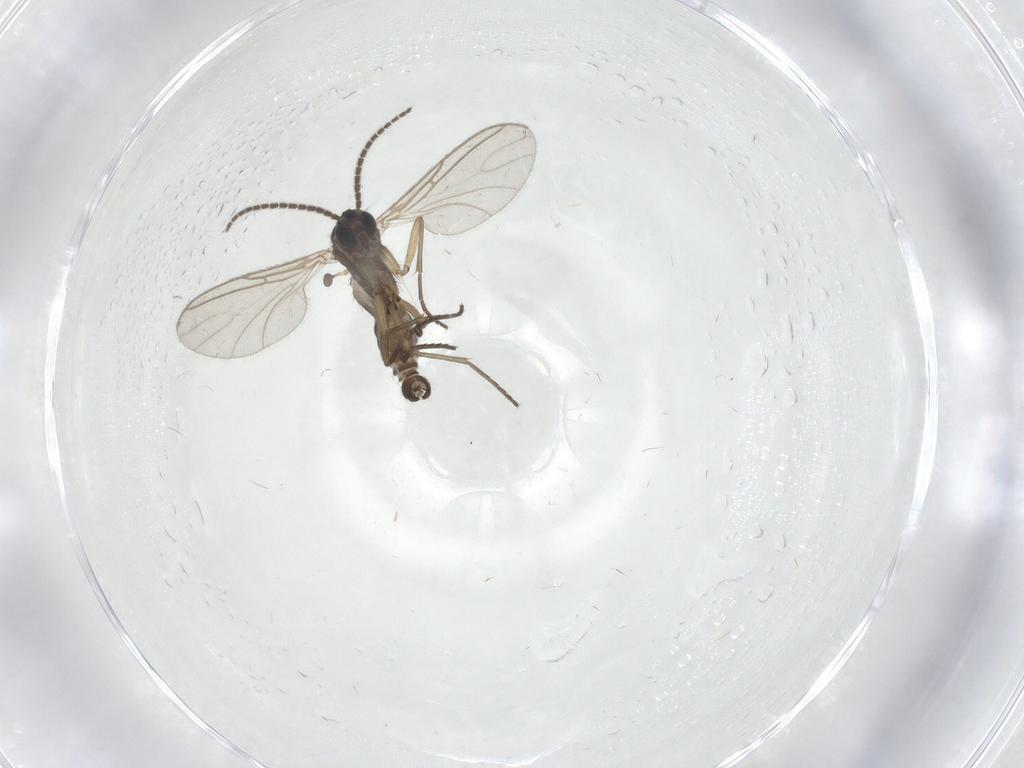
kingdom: Animalia
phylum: Arthropoda
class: Insecta
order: Diptera
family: Sciaridae
